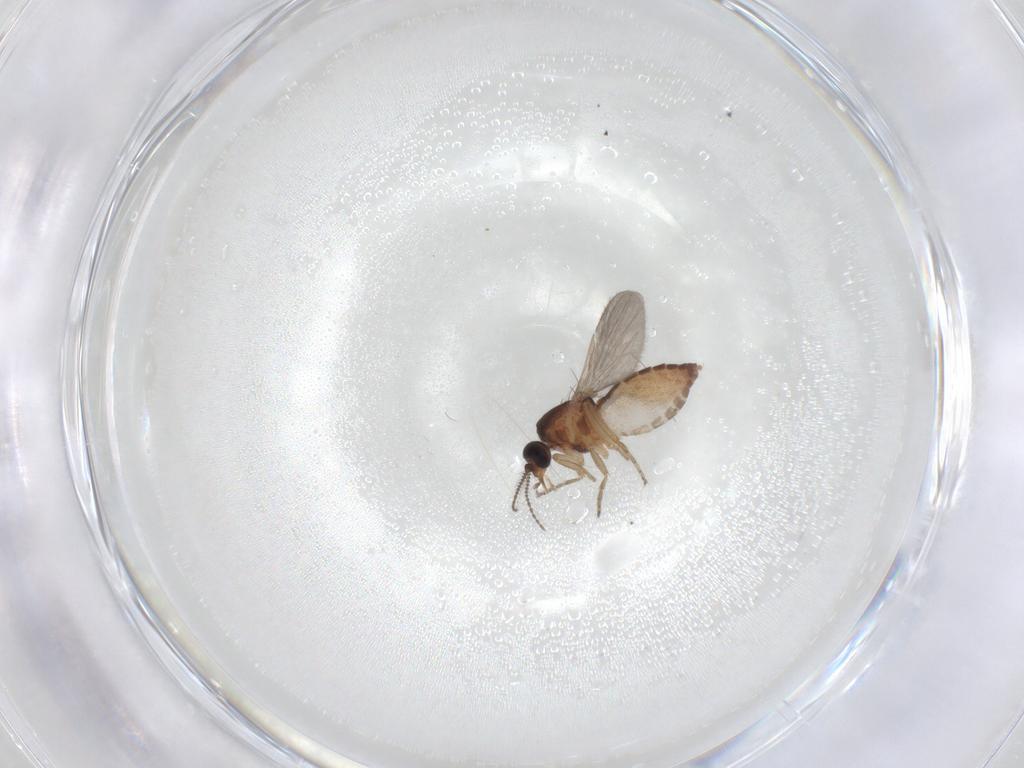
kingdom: Animalia
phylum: Arthropoda
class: Insecta
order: Diptera
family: Ceratopogonidae
